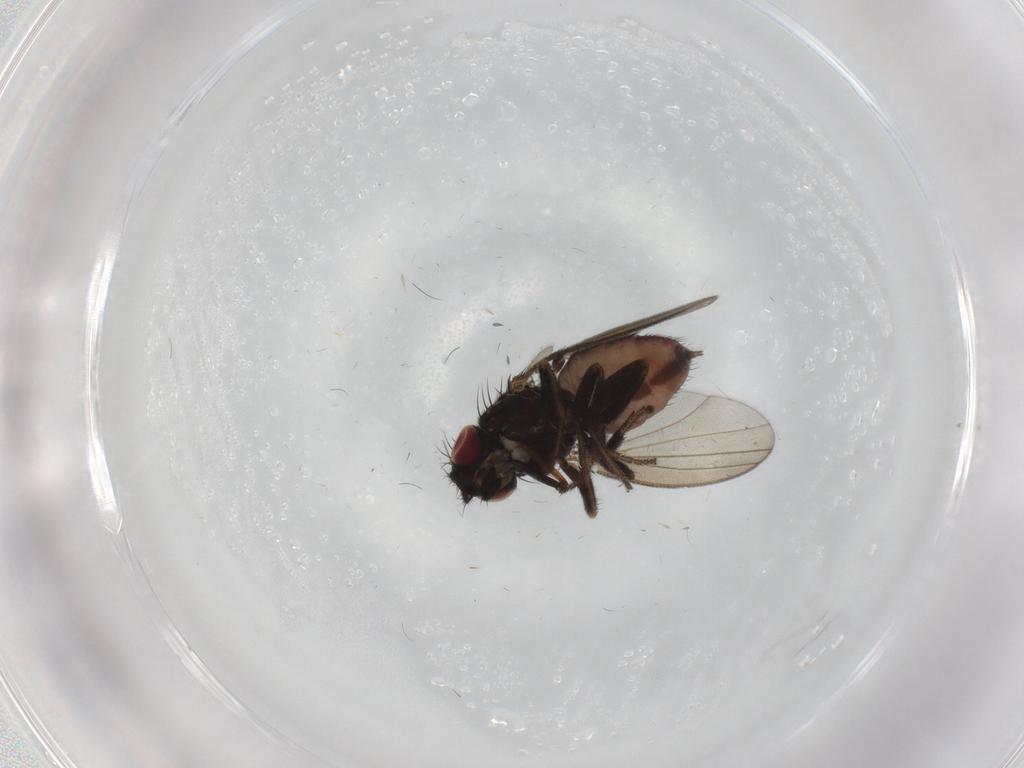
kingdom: Animalia
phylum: Arthropoda
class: Insecta
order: Diptera
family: Milichiidae
